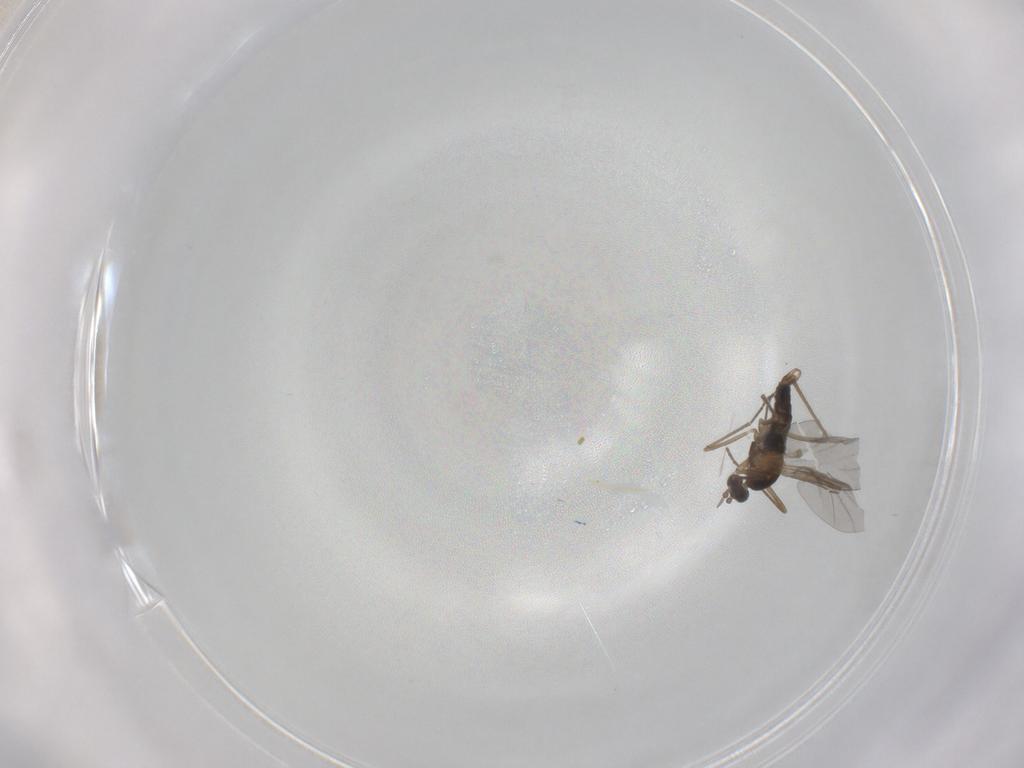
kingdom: Animalia
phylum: Arthropoda
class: Insecta
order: Diptera
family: Cecidomyiidae
